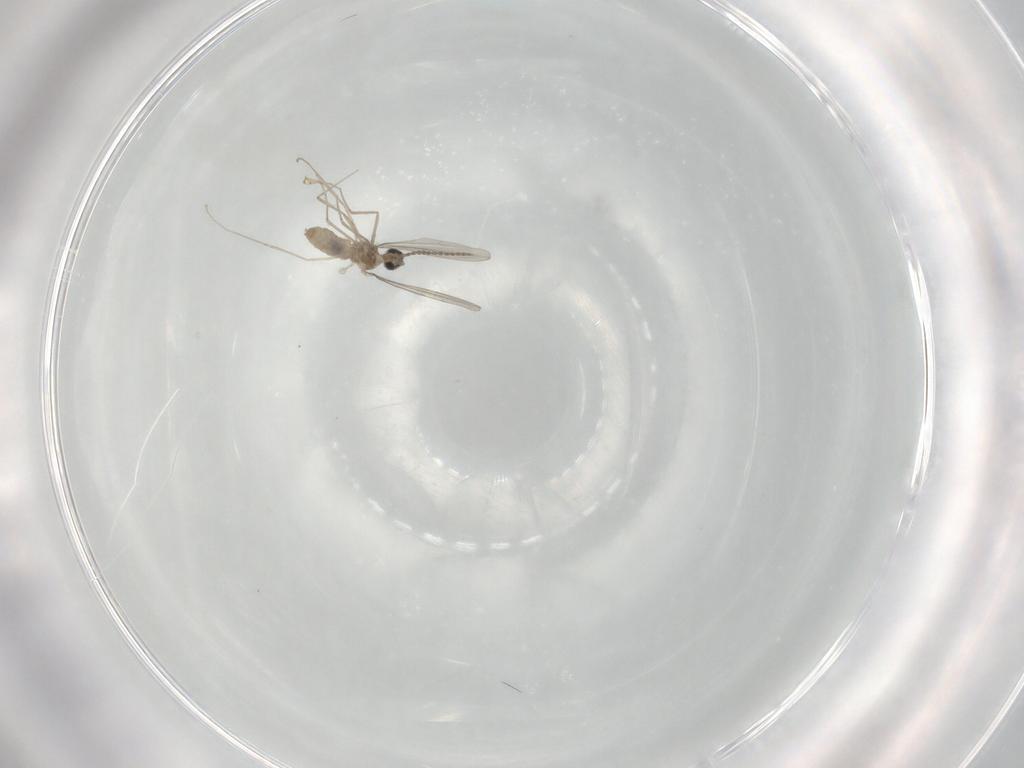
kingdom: Animalia
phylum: Arthropoda
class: Insecta
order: Diptera
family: Cecidomyiidae
